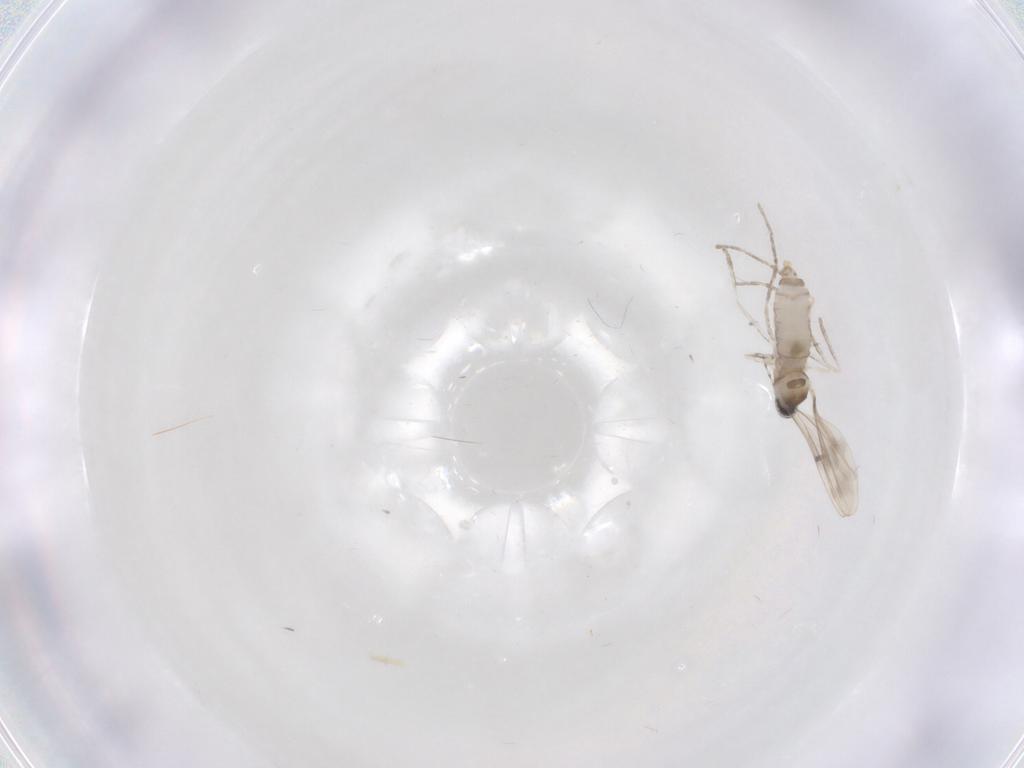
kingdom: Animalia
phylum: Arthropoda
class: Insecta
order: Diptera
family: Cecidomyiidae
